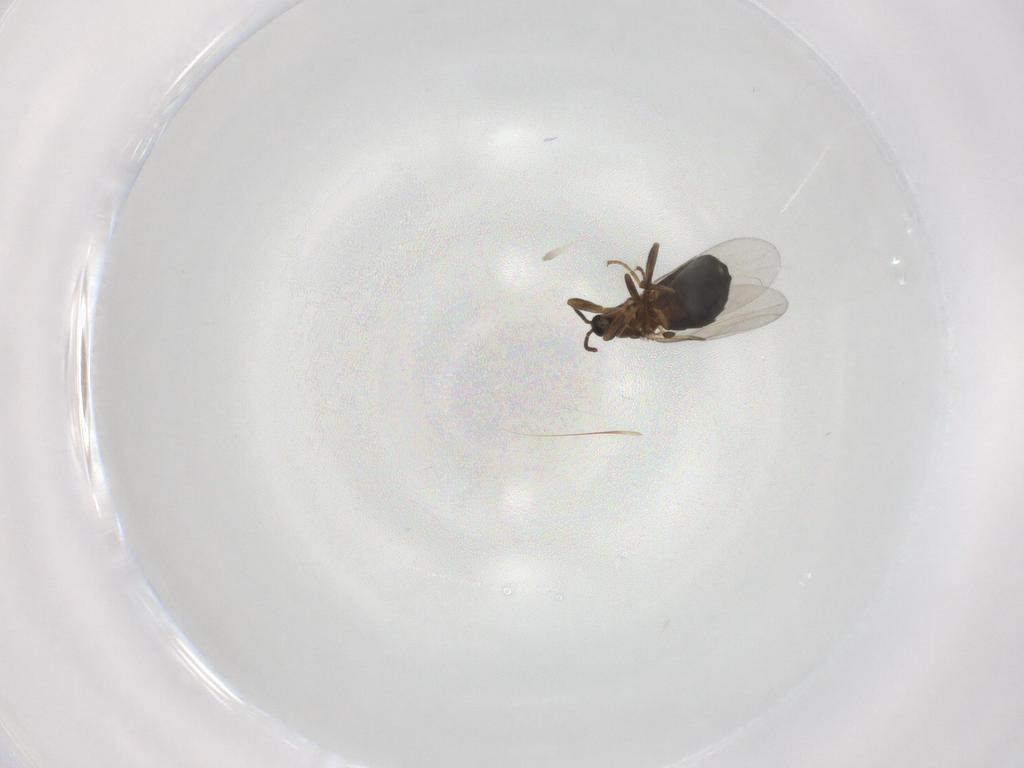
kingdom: Animalia
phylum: Arthropoda
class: Insecta
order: Diptera
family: Scatopsidae
